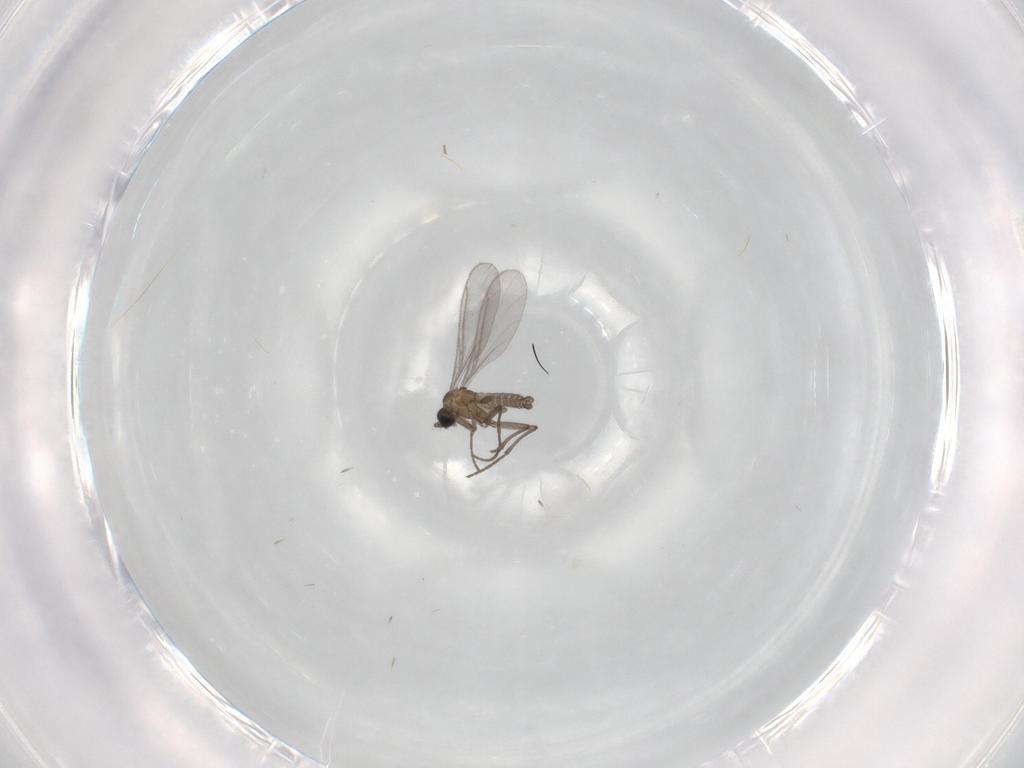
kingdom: Animalia
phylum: Arthropoda
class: Insecta
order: Diptera
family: Sciaridae
